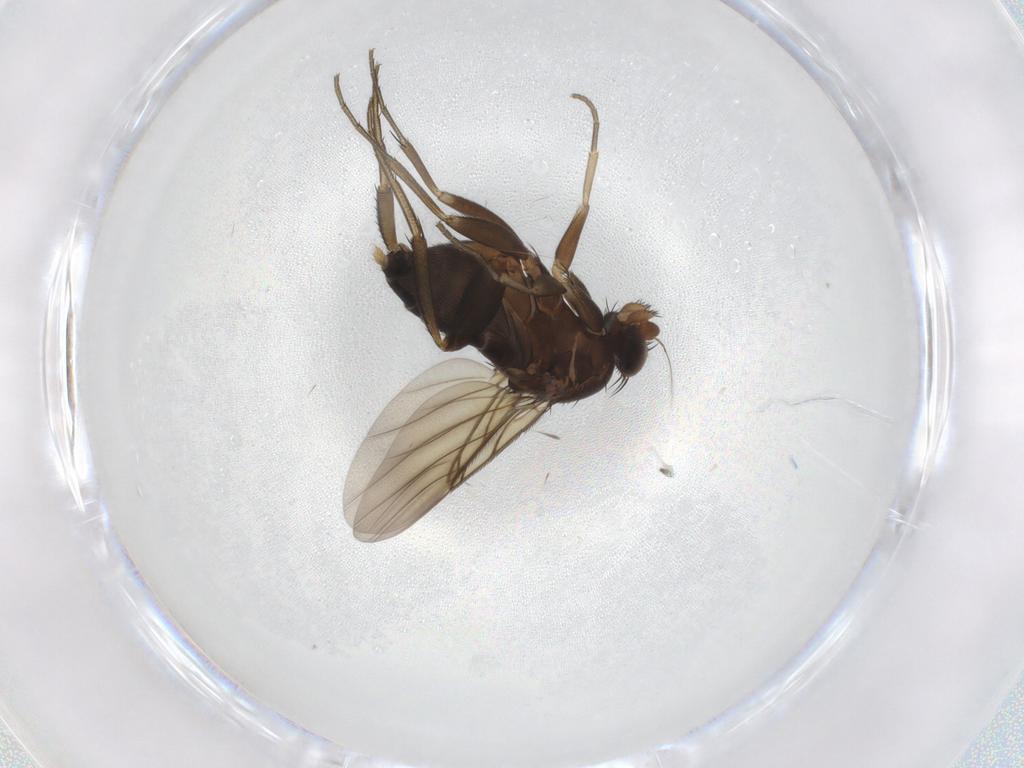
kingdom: Animalia
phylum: Arthropoda
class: Insecta
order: Diptera
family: Phoridae
